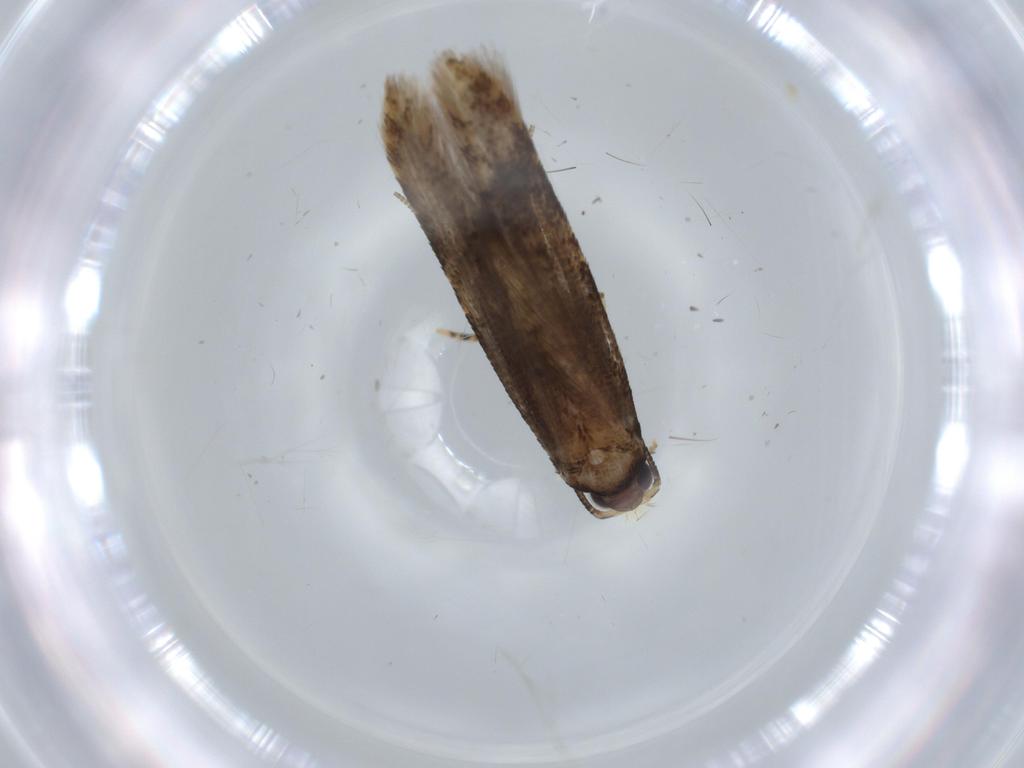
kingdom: Animalia
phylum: Arthropoda
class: Insecta
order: Lepidoptera
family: Tineidae
